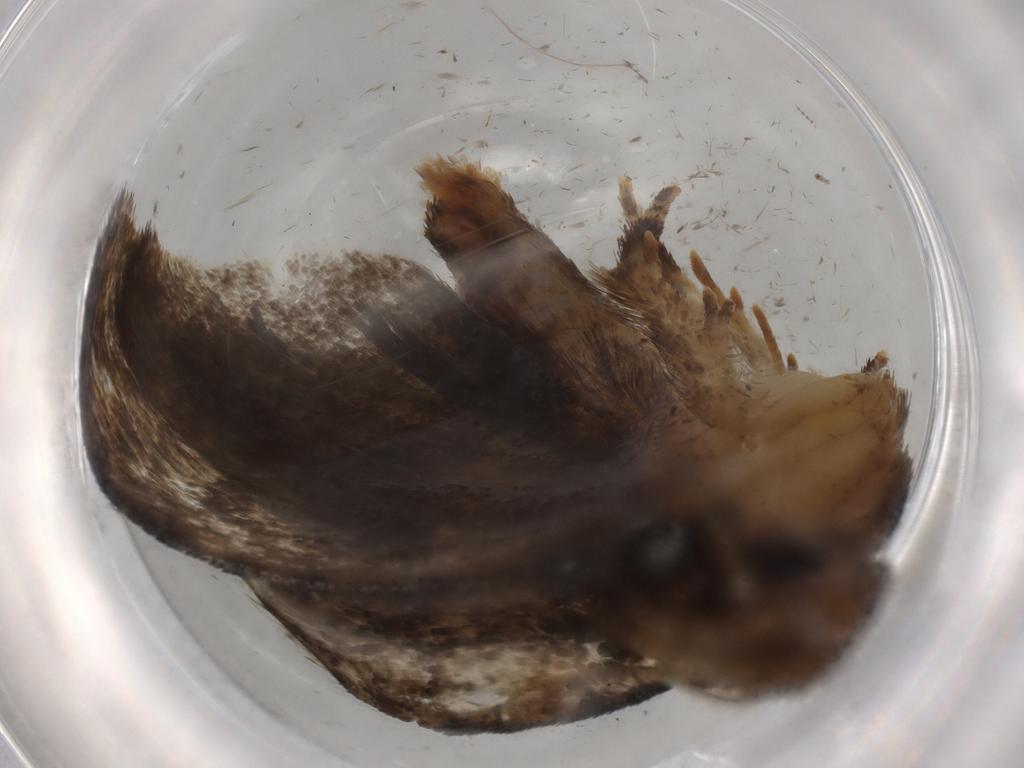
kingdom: Animalia
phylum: Arthropoda
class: Insecta
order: Lepidoptera
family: Tineidae
